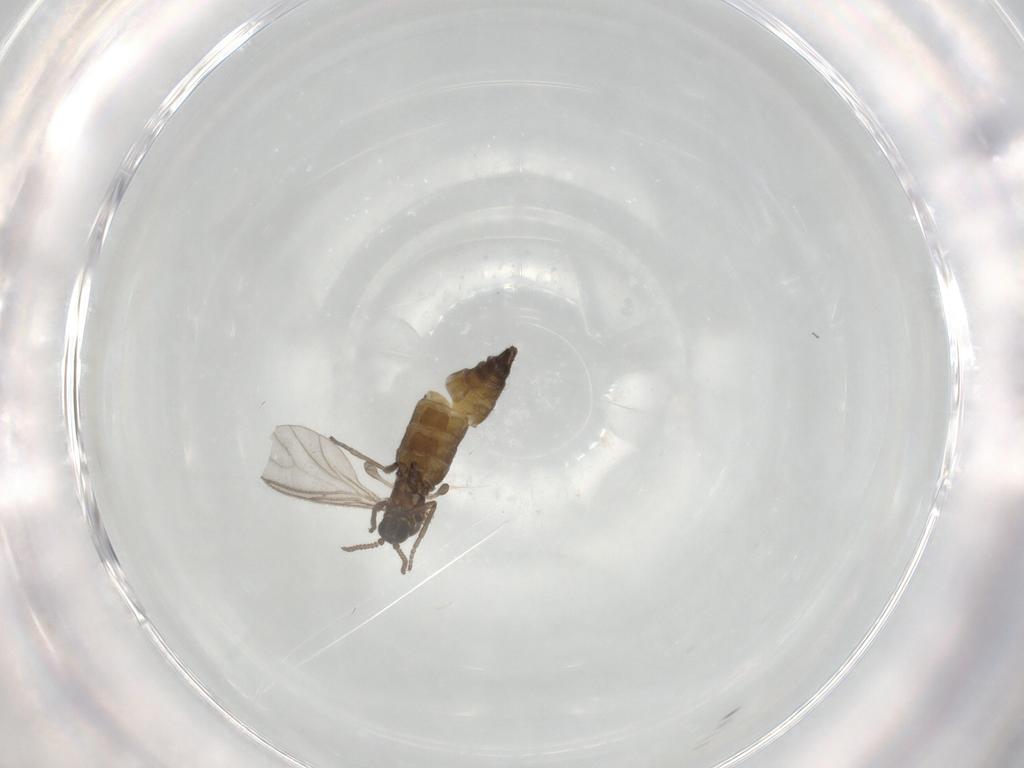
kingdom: Animalia
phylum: Arthropoda
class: Insecta
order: Diptera
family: Sciaridae
